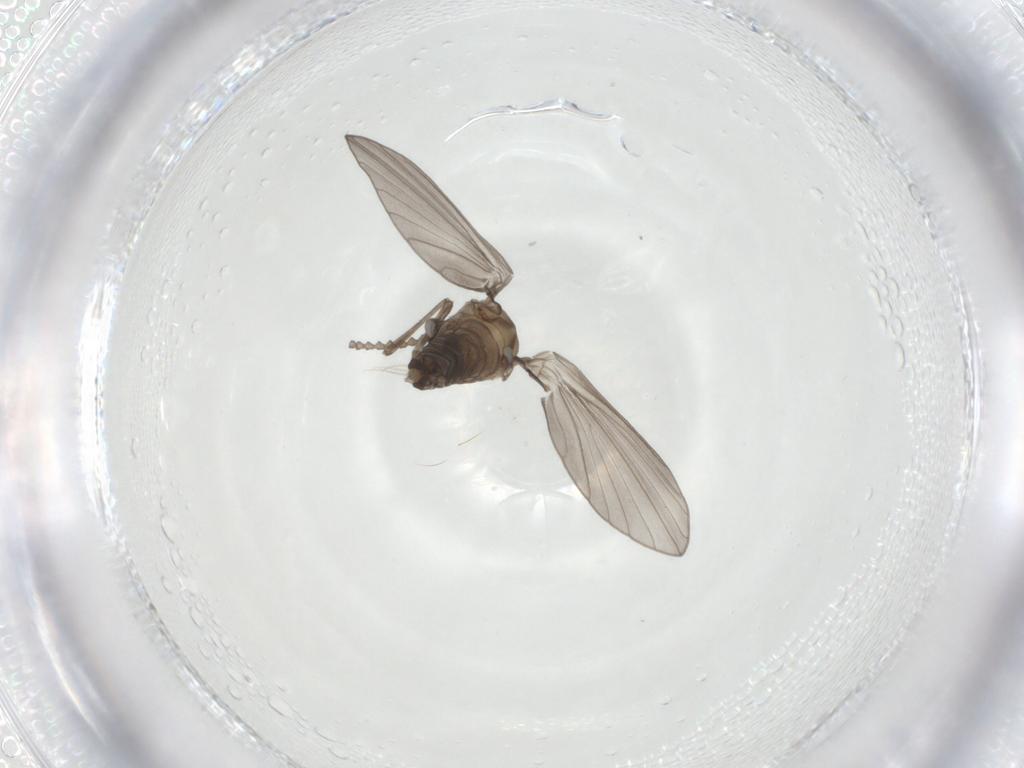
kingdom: Animalia
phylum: Arthropoda
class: Insecta
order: Diptera
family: Psychodidae
